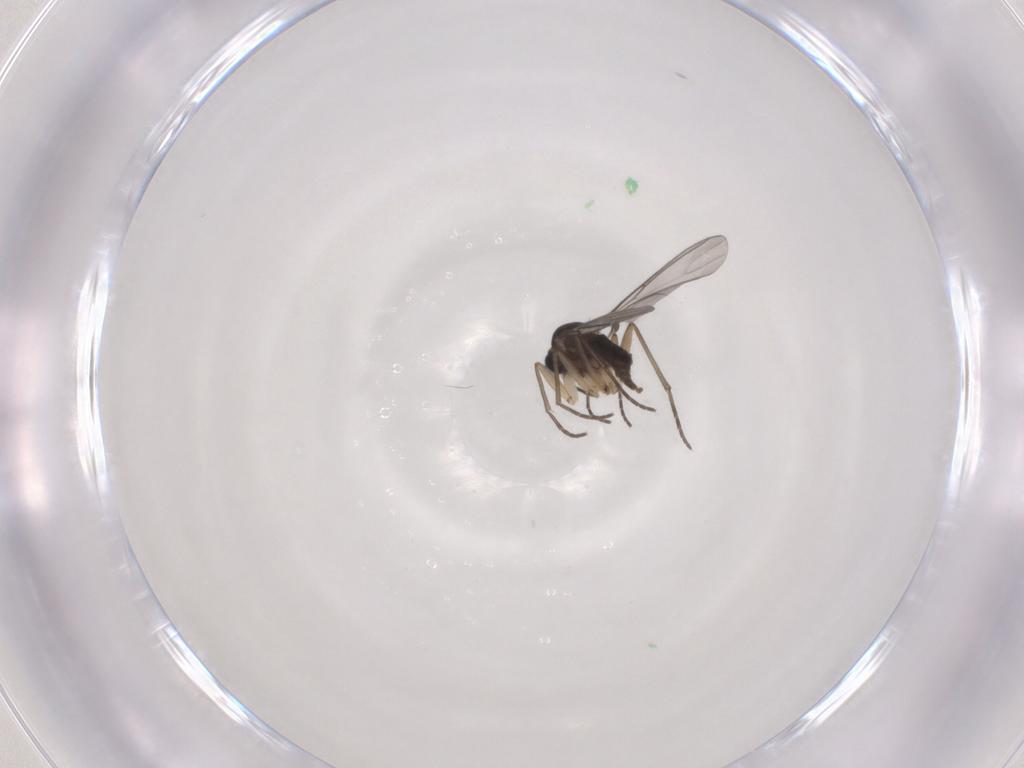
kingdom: Animalia
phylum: Arthropoda
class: Insecta
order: Diptera
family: Sciaridae
